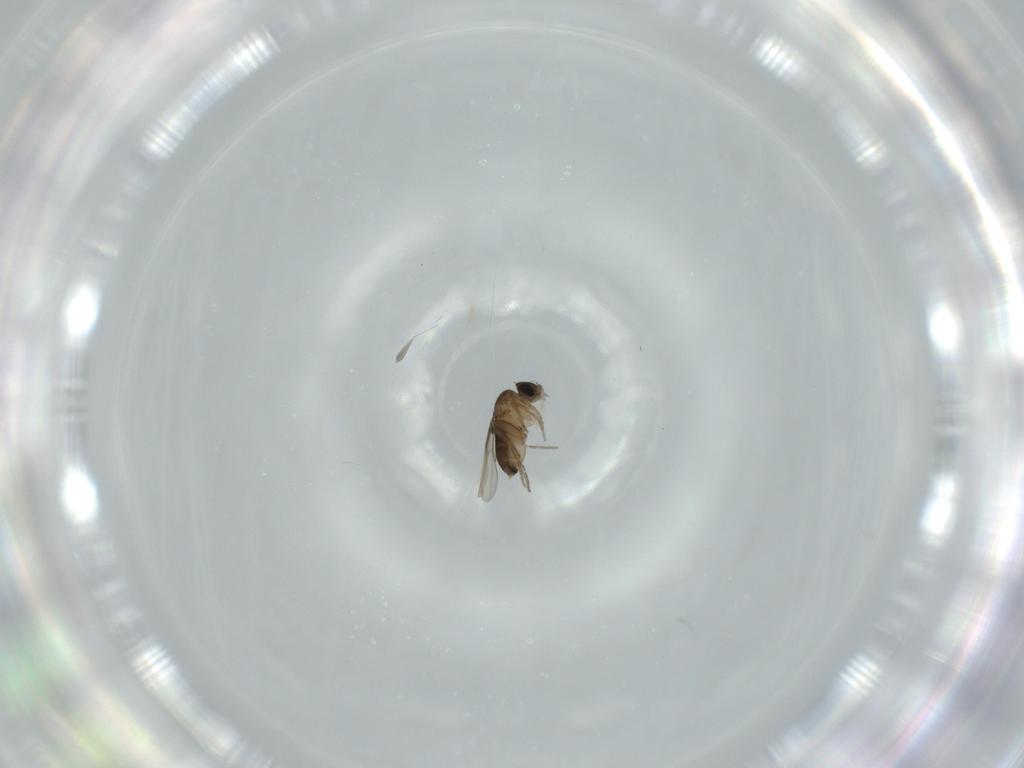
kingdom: Animalia
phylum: Arthropoda
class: Insecta
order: Diptera
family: Phoridae
